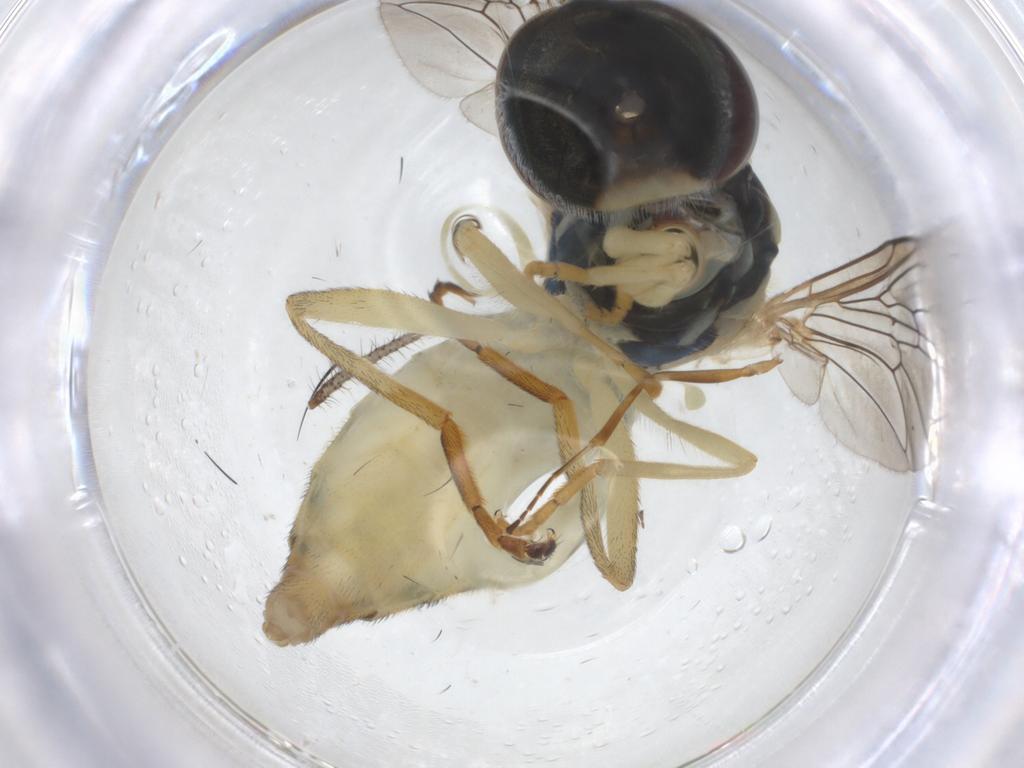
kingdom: Animalia
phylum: Arthropoda
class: Insecta
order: Diptera
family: Syrphidae
